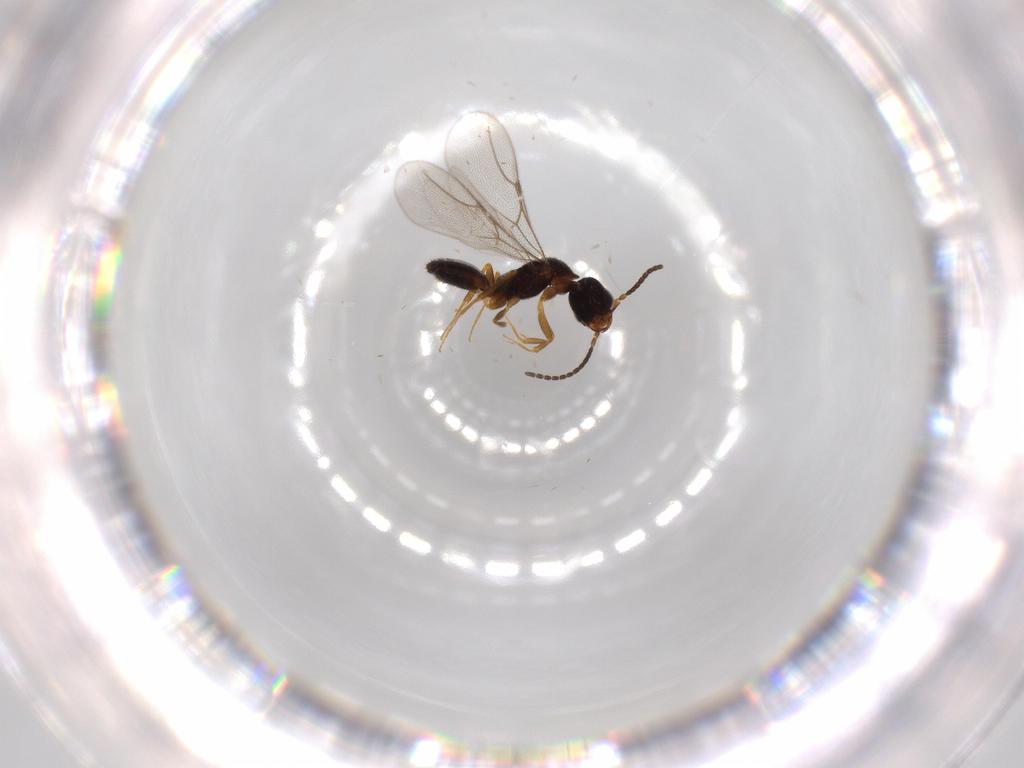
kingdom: Animalia
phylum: Arthropoda
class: Insecta
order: Hymenoptera
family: Bethylidae
